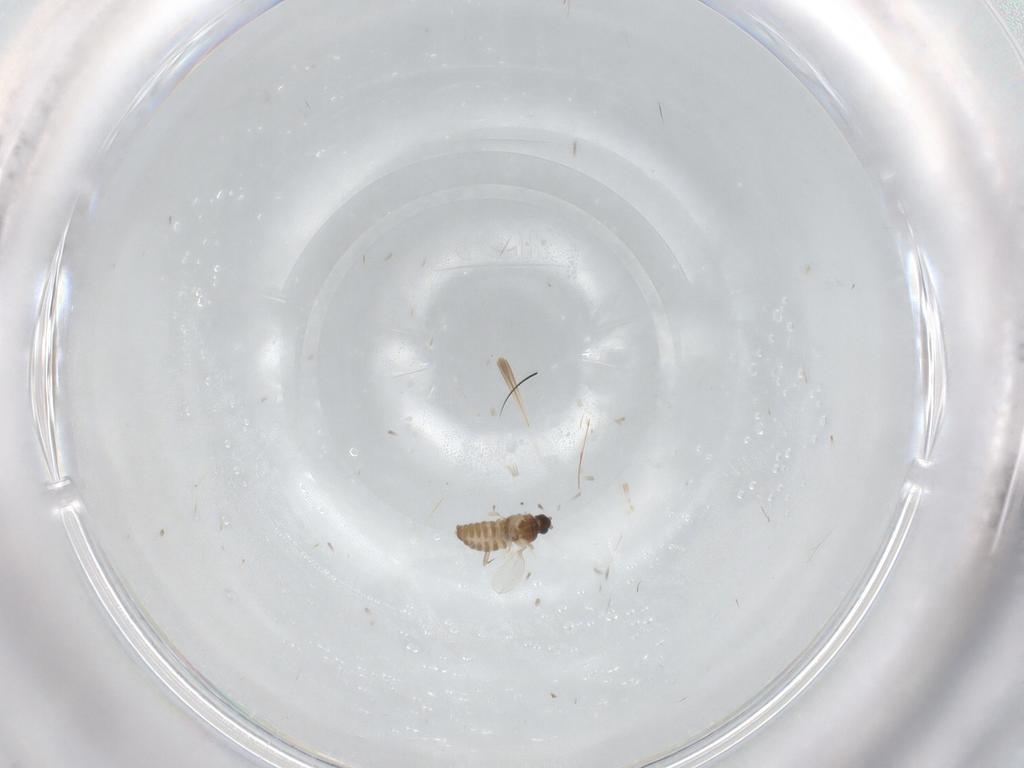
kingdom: Animalia
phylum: Arthropoda
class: Insecta
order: Diptera
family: Cecidomyiidae
